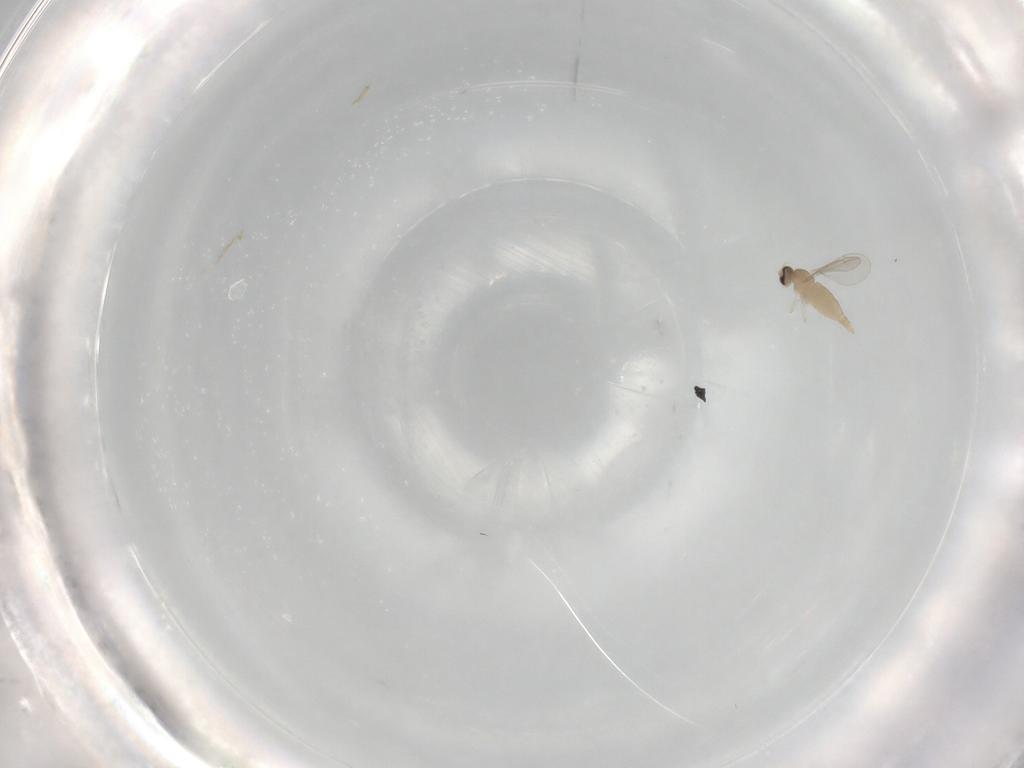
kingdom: Animalia
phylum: Arthropoda
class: Insecta
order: Diptera
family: Cecidomyiidae
